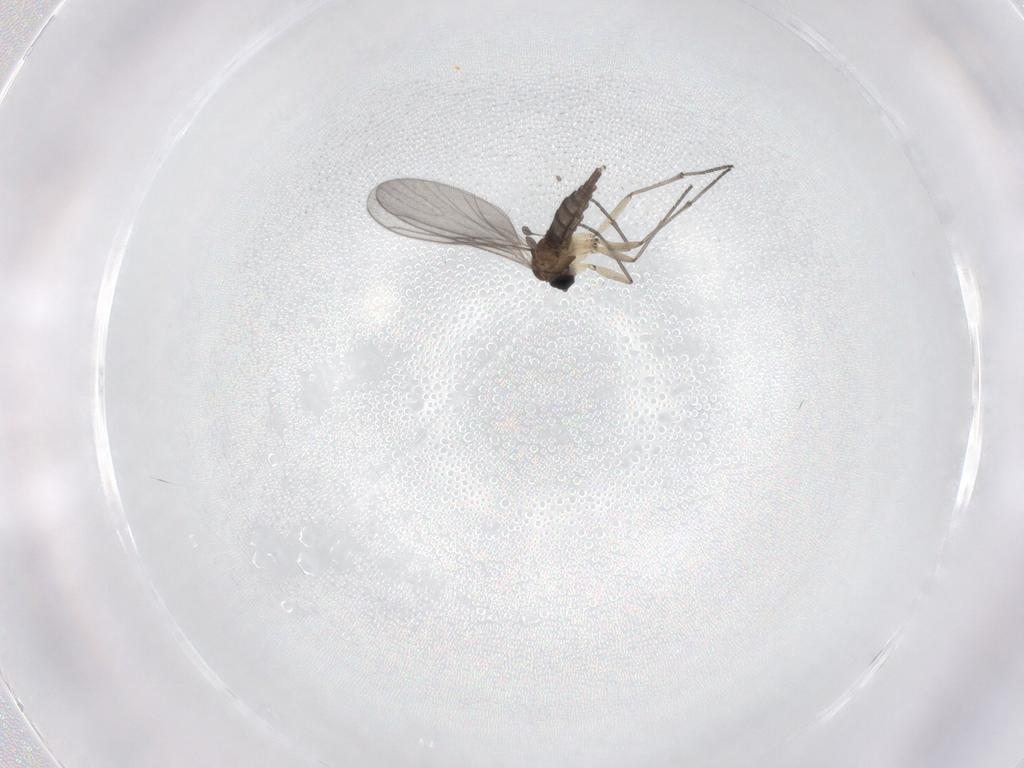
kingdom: Animalia
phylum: Arthropoda
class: Insecta
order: Diptera
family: Sciaridae
